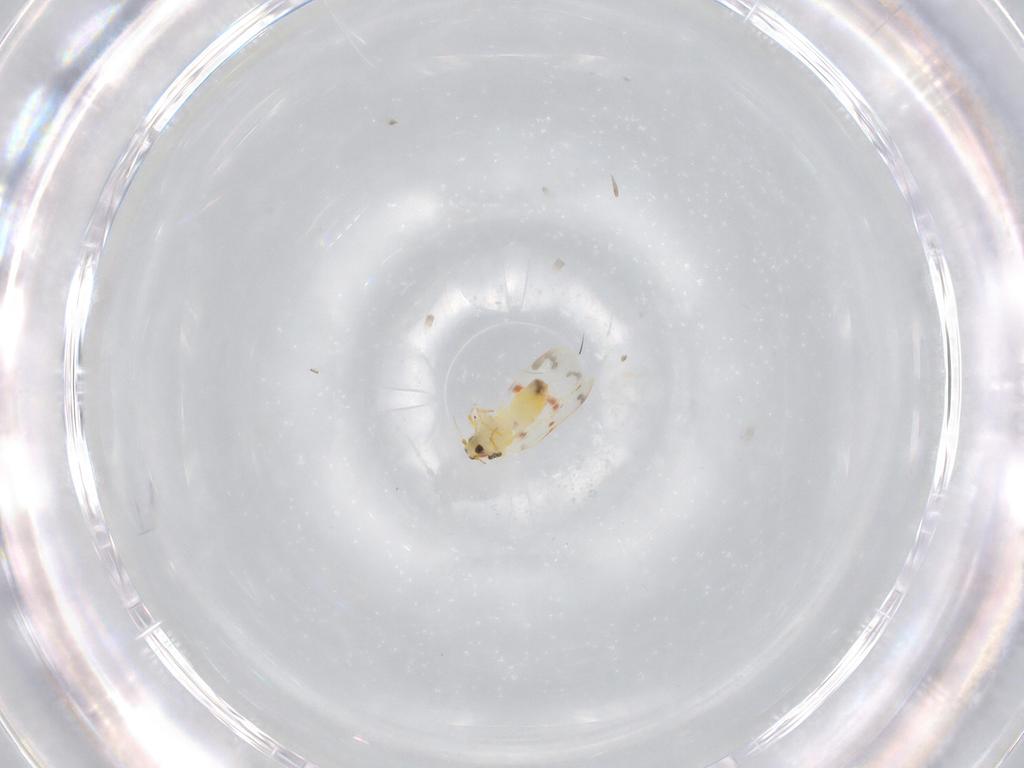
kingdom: Animalia
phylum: Arthropoda
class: Insecta
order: Hemiptera
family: Aleyrodidae
